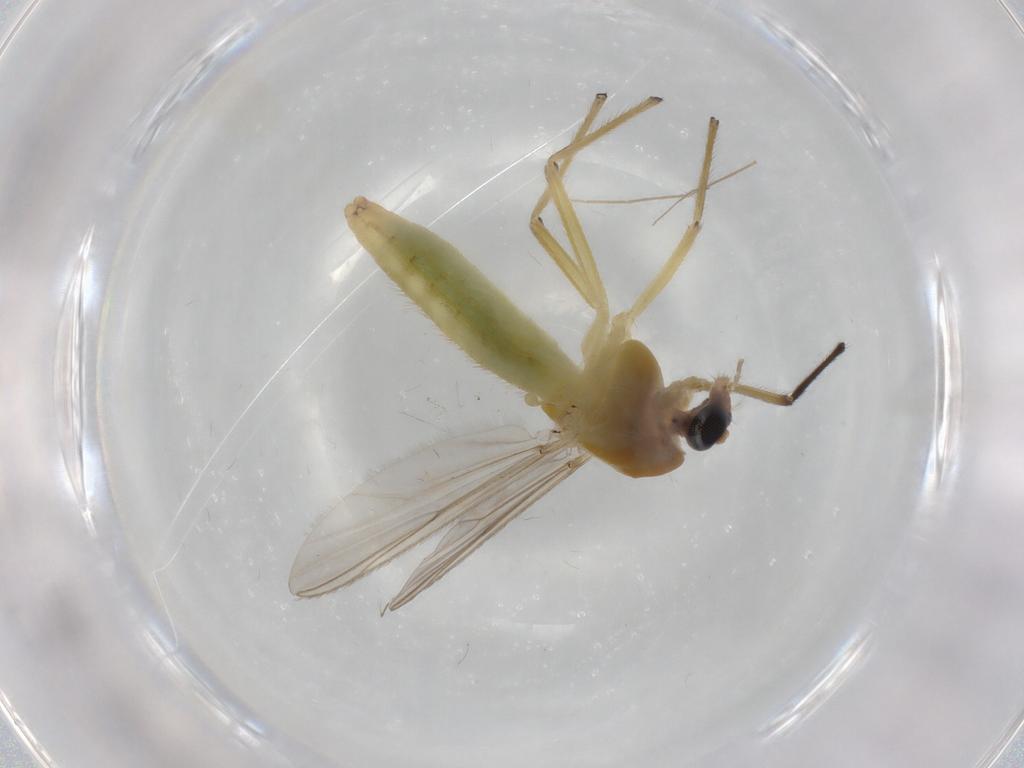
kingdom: Animalia
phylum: Arthropoda
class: Insecta
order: Diptera
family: Chironomidae
